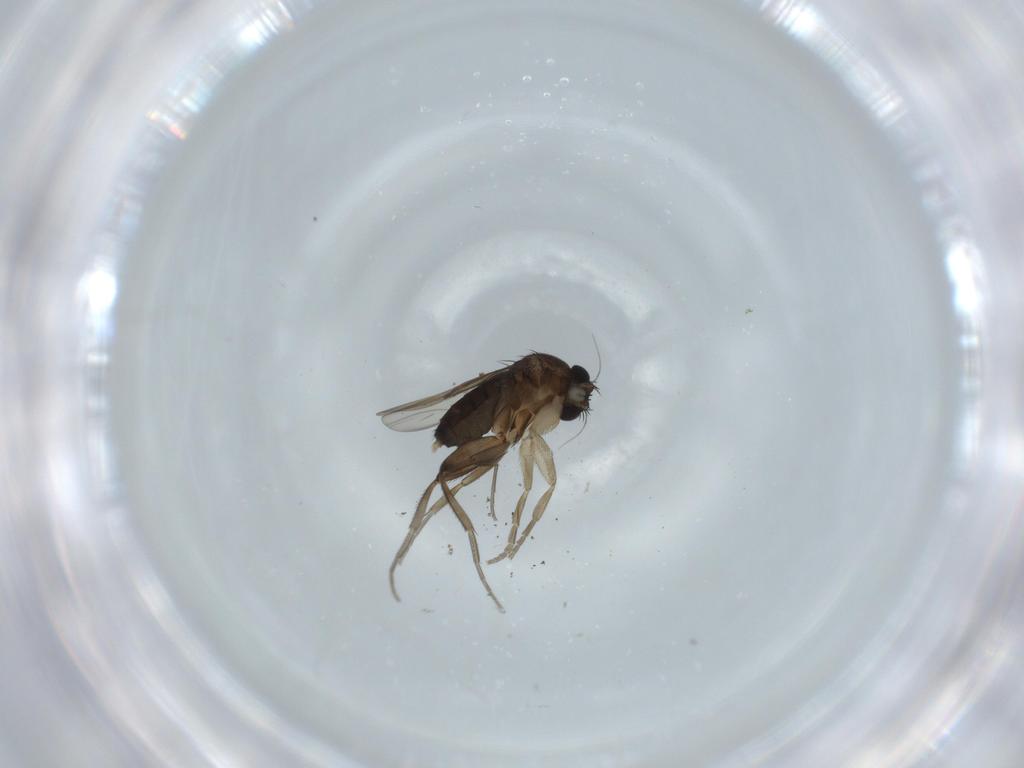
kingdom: Animalia
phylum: Arthropoda
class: Insecta
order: Diptera
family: Phoridae
